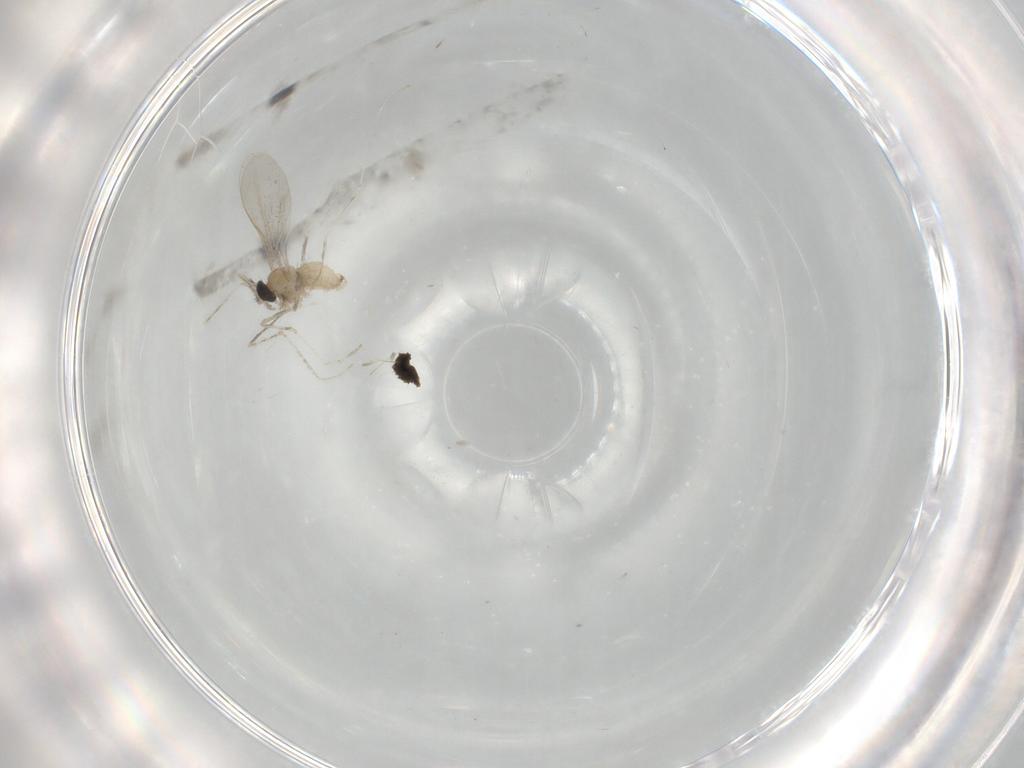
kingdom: Animalia
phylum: Arthropoda
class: Insecta
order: Diptera
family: Cecidomyiidae
